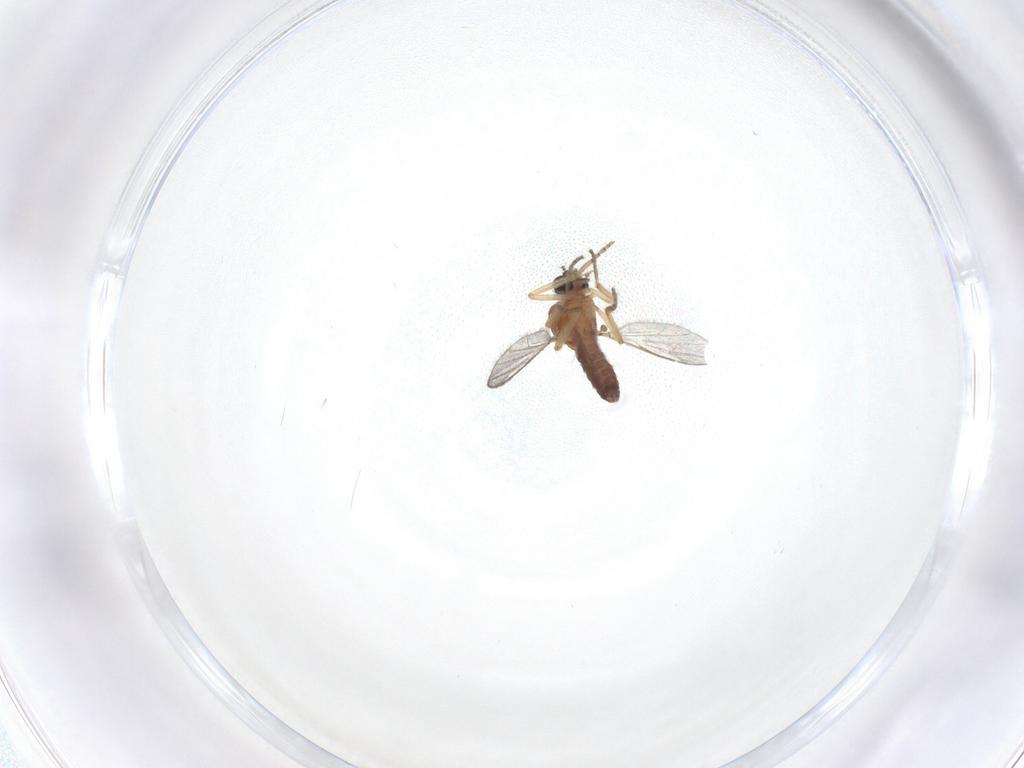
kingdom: Animalia
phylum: Arthropoda
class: Insecta
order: Diptera
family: Ceratopogonidae
